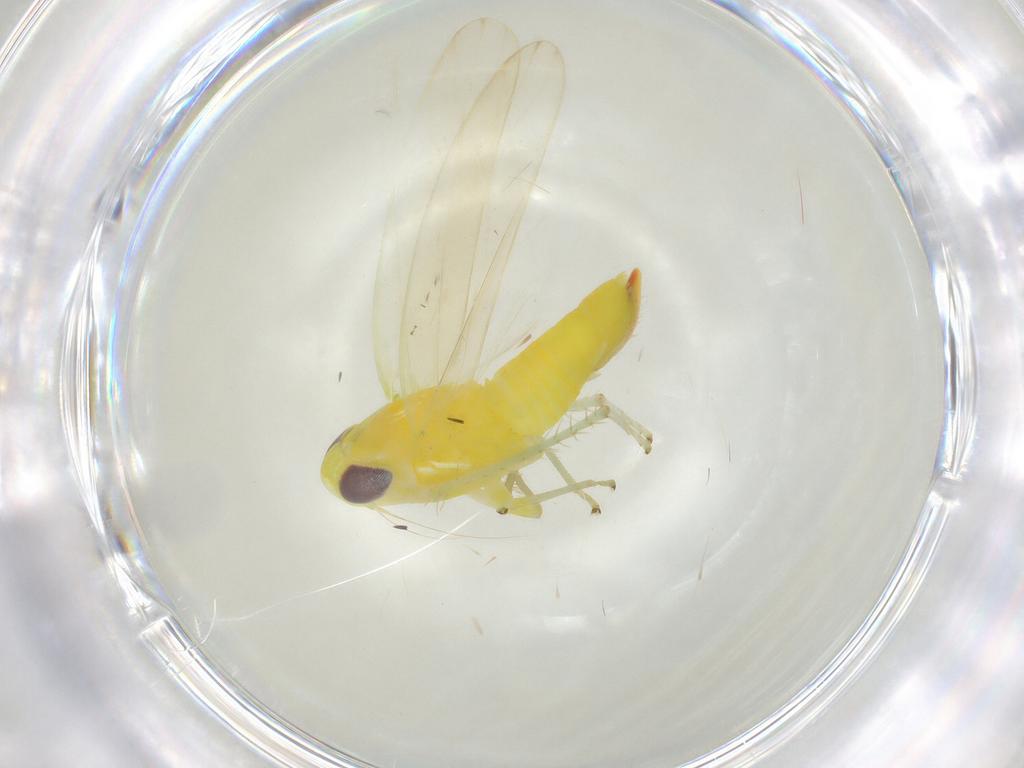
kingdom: Animalia
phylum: Arthropoda
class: Insecta
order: Hemiptera
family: Cicadellidae
